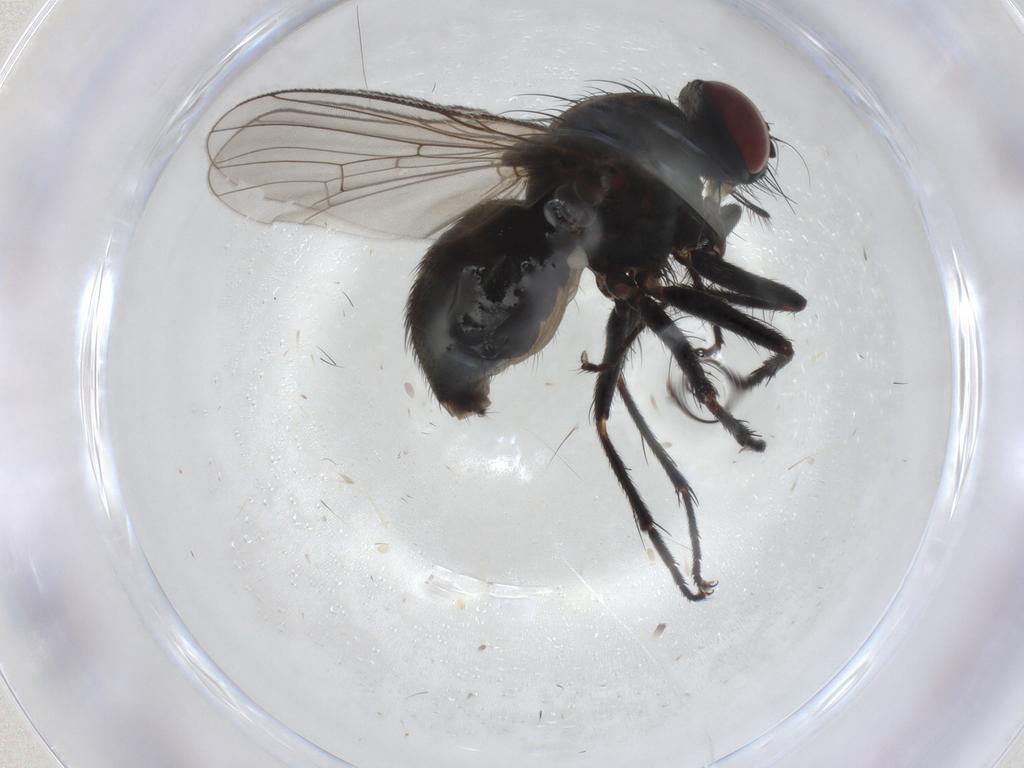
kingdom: Animalia
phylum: Arthropoda
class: Insecta
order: Diptera
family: Muscidae
